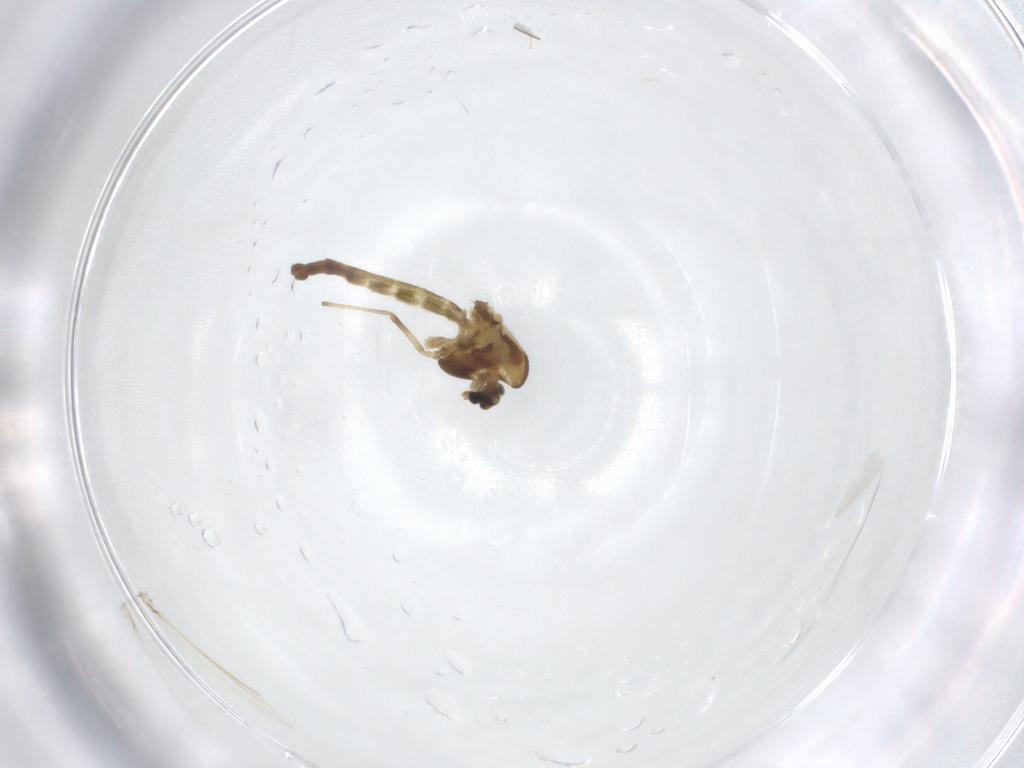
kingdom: Animalia
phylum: Arthropoda
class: Insecta
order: Diptera
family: Chironomidae
